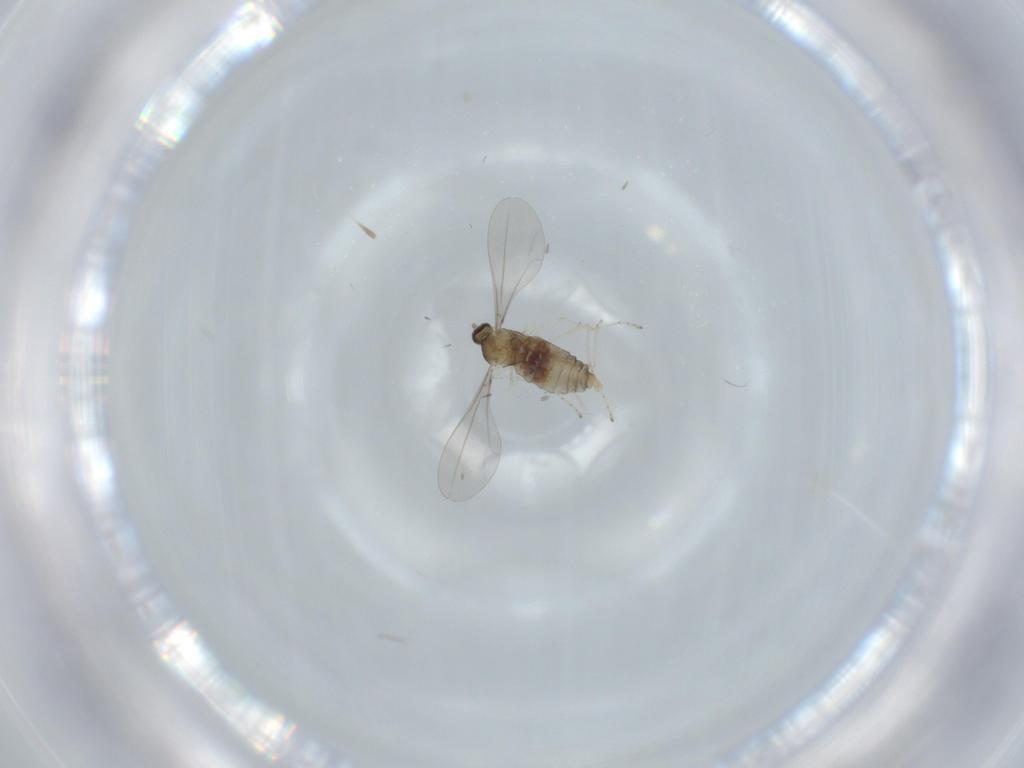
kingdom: Animalia
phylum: Arthropoda
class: Insecta
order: Diptera
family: Cecidomyiidae
